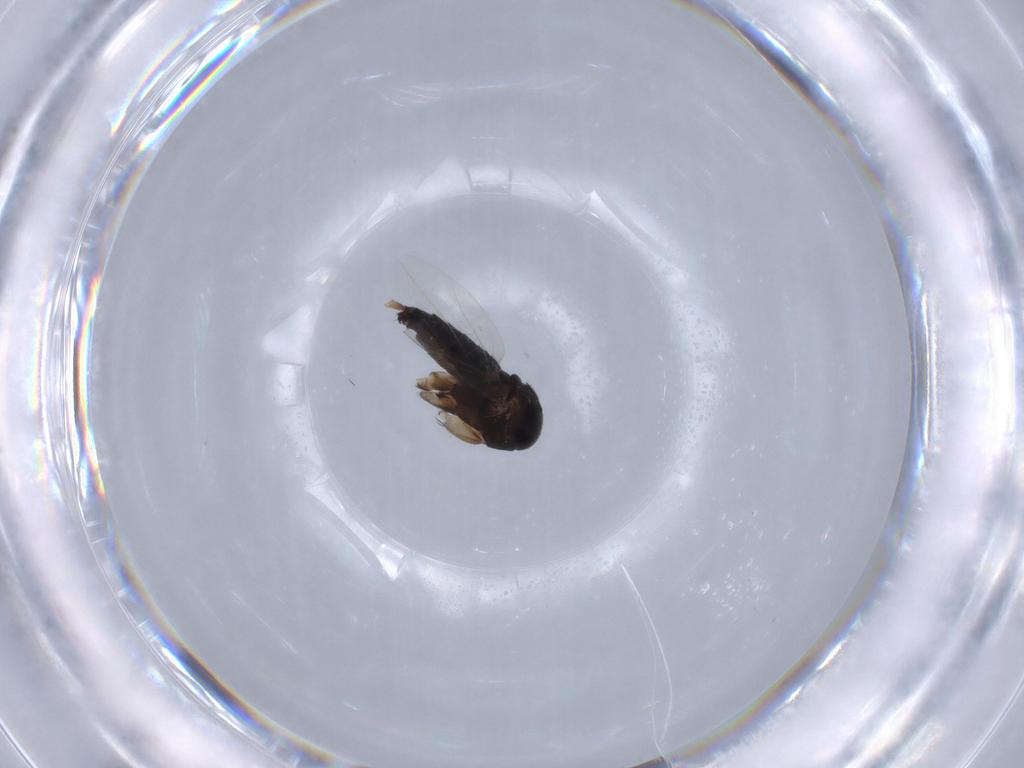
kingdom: Animalia
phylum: Arthropoda
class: Insecta
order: Diptera
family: Phoridae
